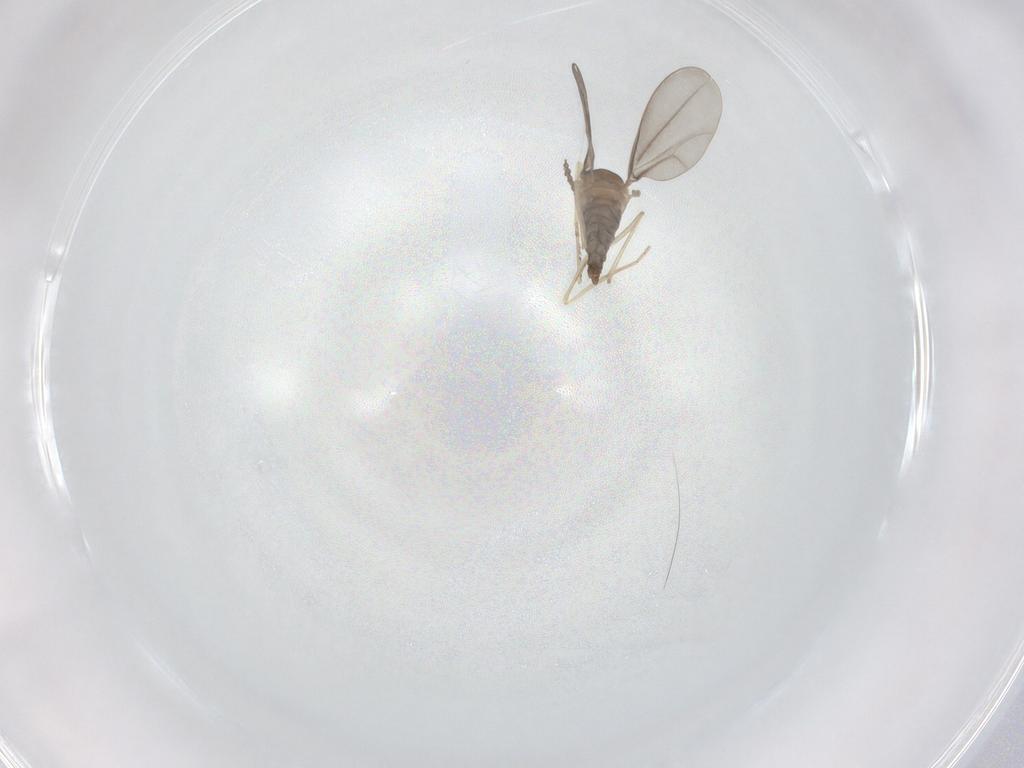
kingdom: Animalia
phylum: Arthropoda
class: Insecta
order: Diptera
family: Cecidomyiidae
